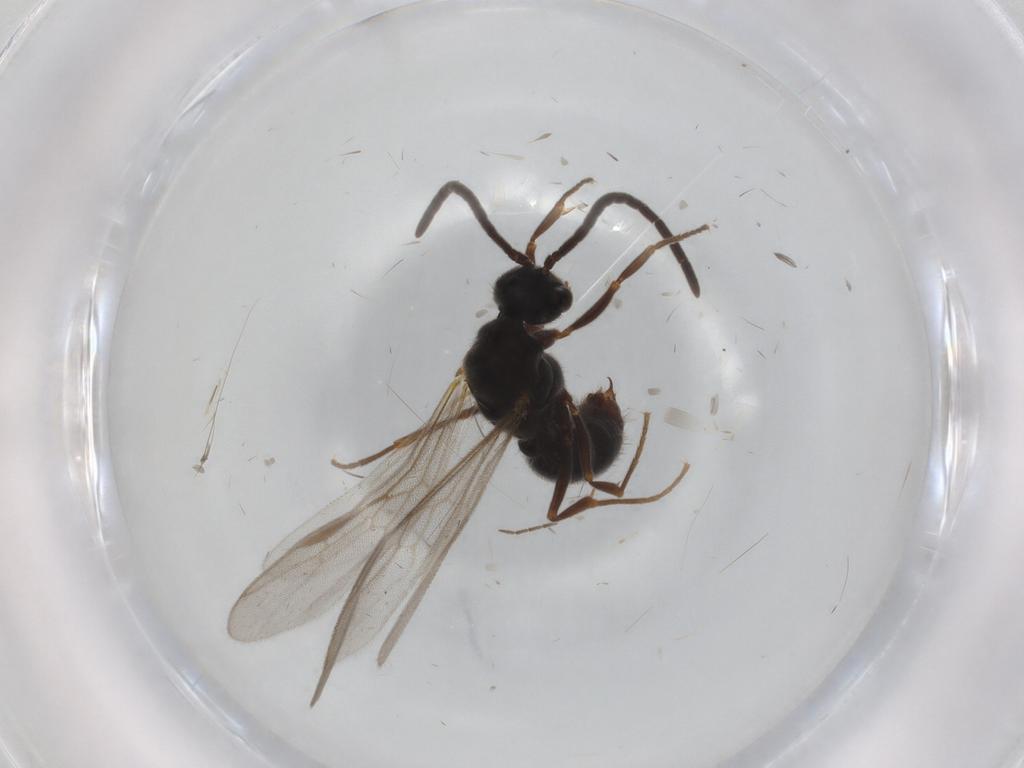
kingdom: Animalia
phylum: Arthropoda
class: Insecta
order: Hymenoptera
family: Formicidae
